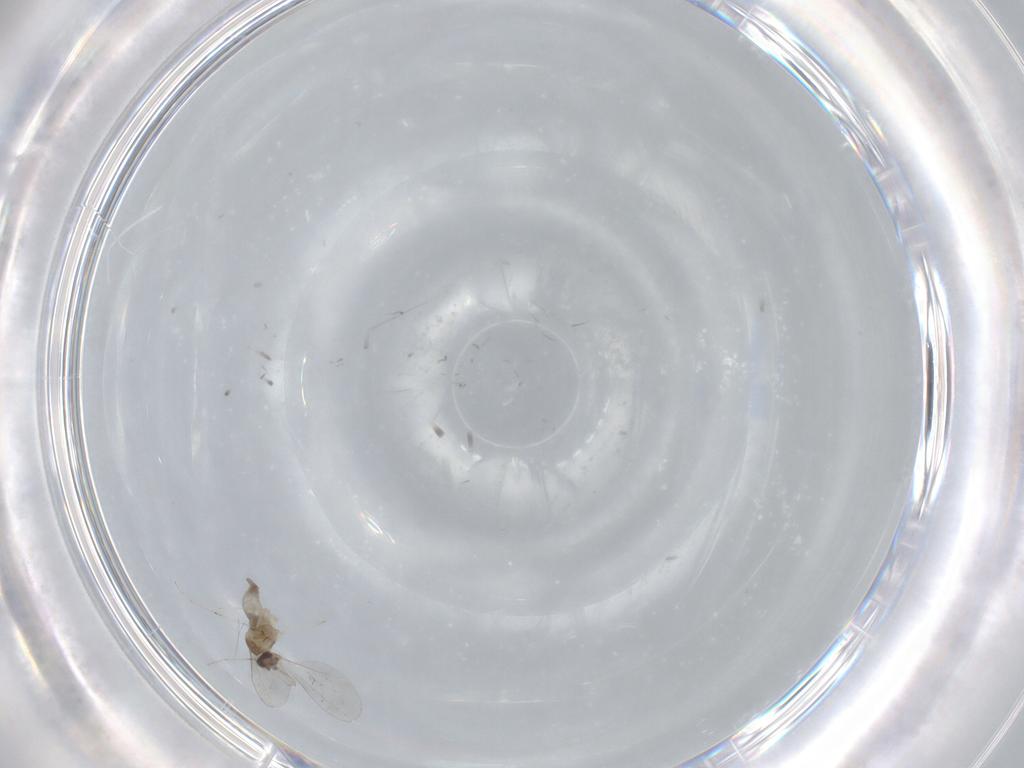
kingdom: Animalia
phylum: Arthropoda
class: Insecta
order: Diptera
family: Cecidomyiidae
